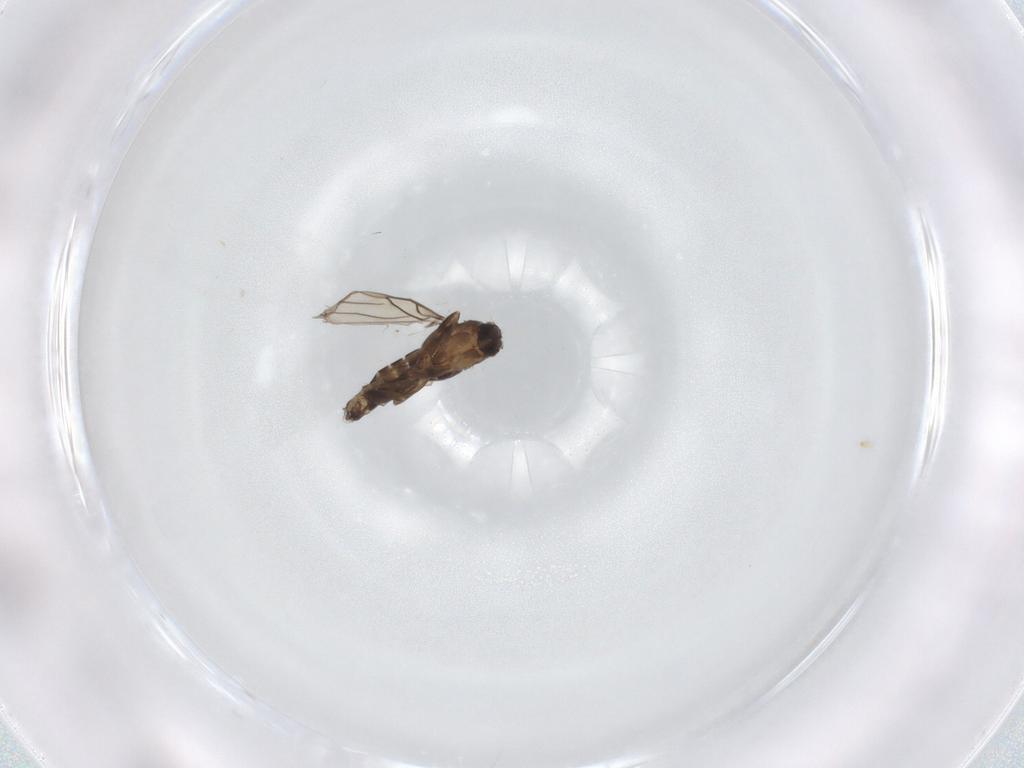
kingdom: Animalia
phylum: Arthropoda
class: Insecta
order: Diptera
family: Phoridae
